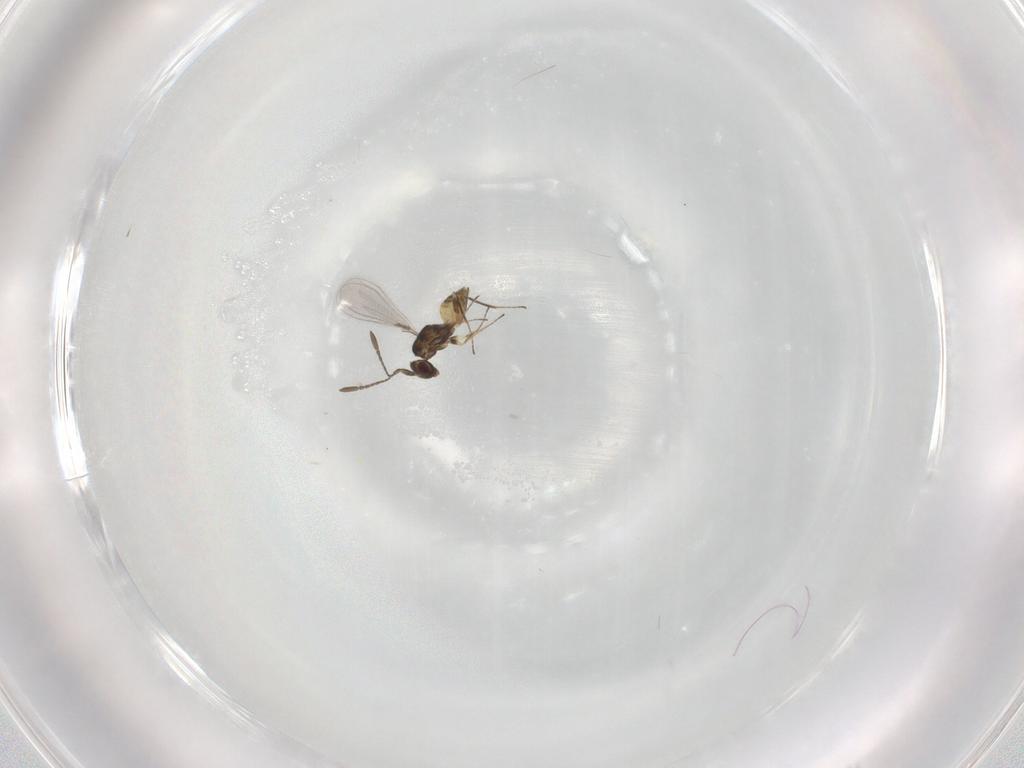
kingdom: Animalia
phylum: Arthropoda
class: Insecta
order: Hymenoptera
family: Mymaridae
